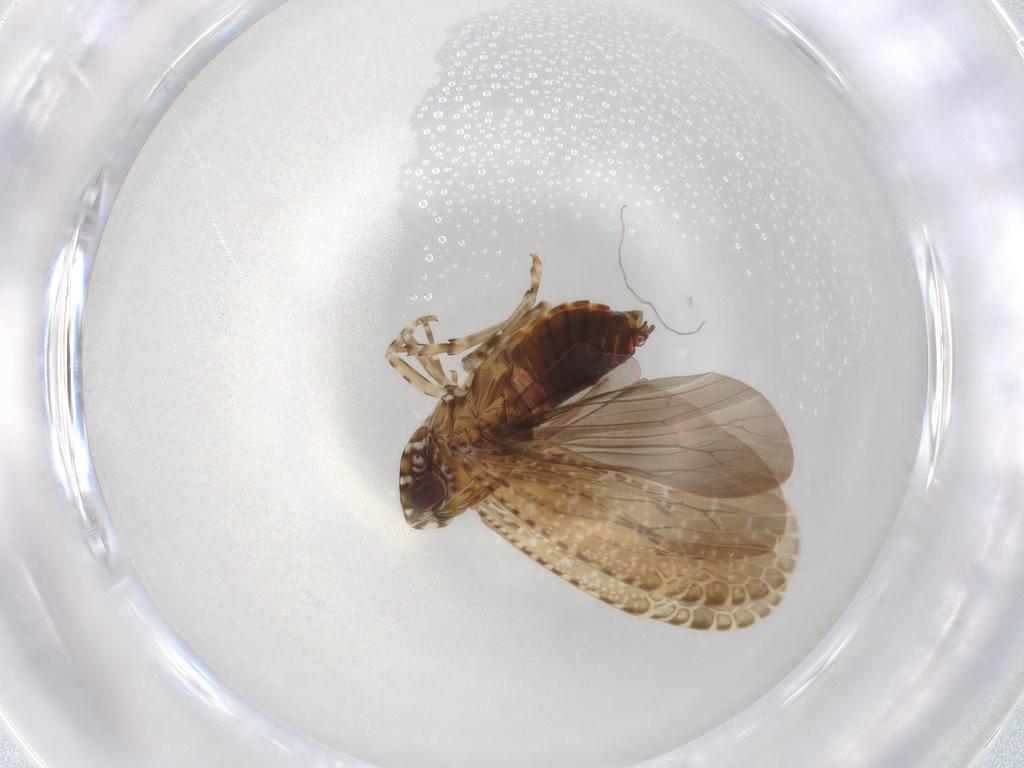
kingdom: Animalia
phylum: Arthropoda
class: Insecta
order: Hemiptera
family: Achilidae
